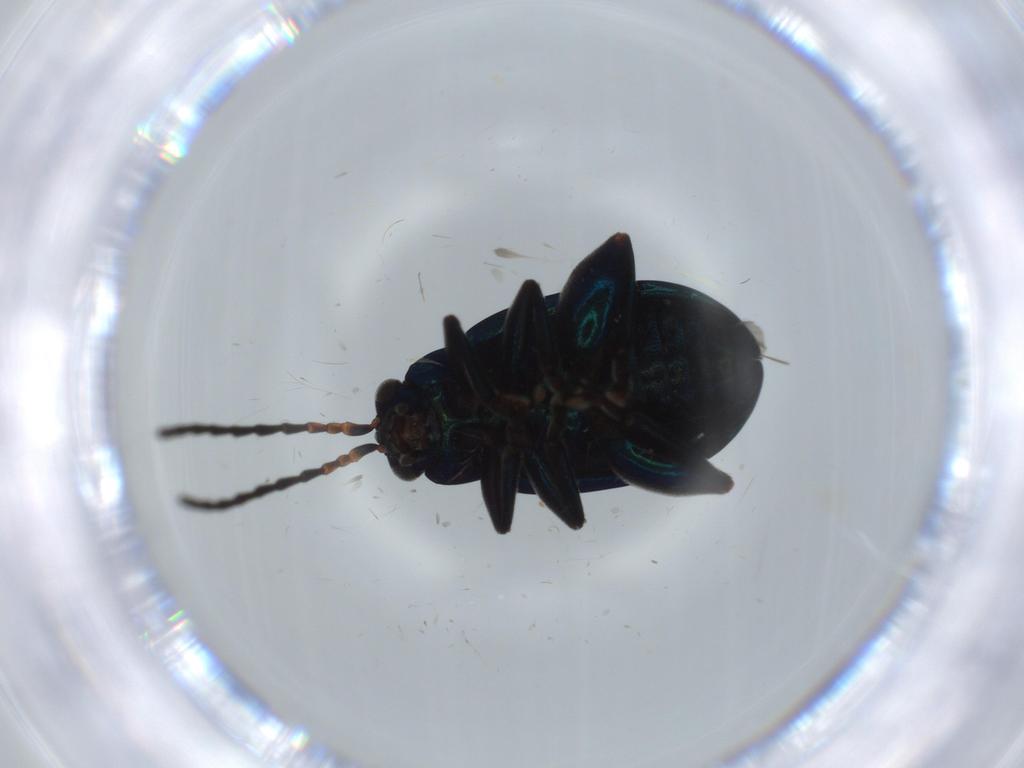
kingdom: Animalia
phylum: Arthropoda
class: Insecta
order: Coleoptera
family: Chrysomelidae
